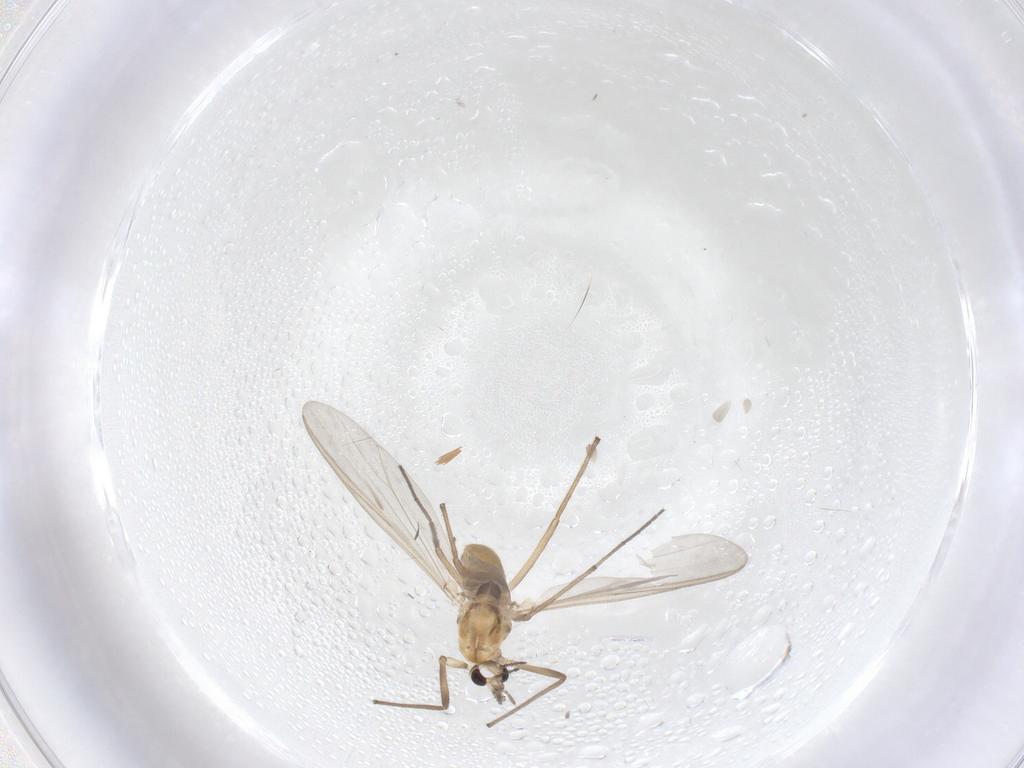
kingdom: Animalia
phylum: Arthropoda
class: Insecta
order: Diptera
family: Chironomidae
